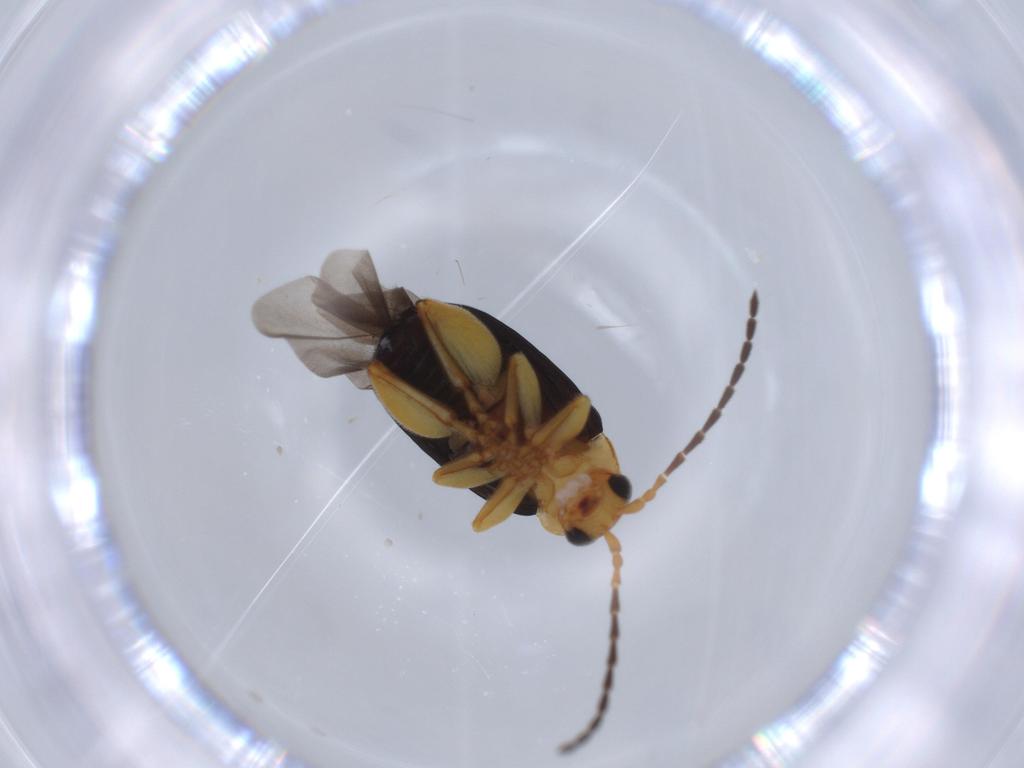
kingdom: Animalia
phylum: Arthropoda
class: Insecta
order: Coleoptera
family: Chrysomelidae
